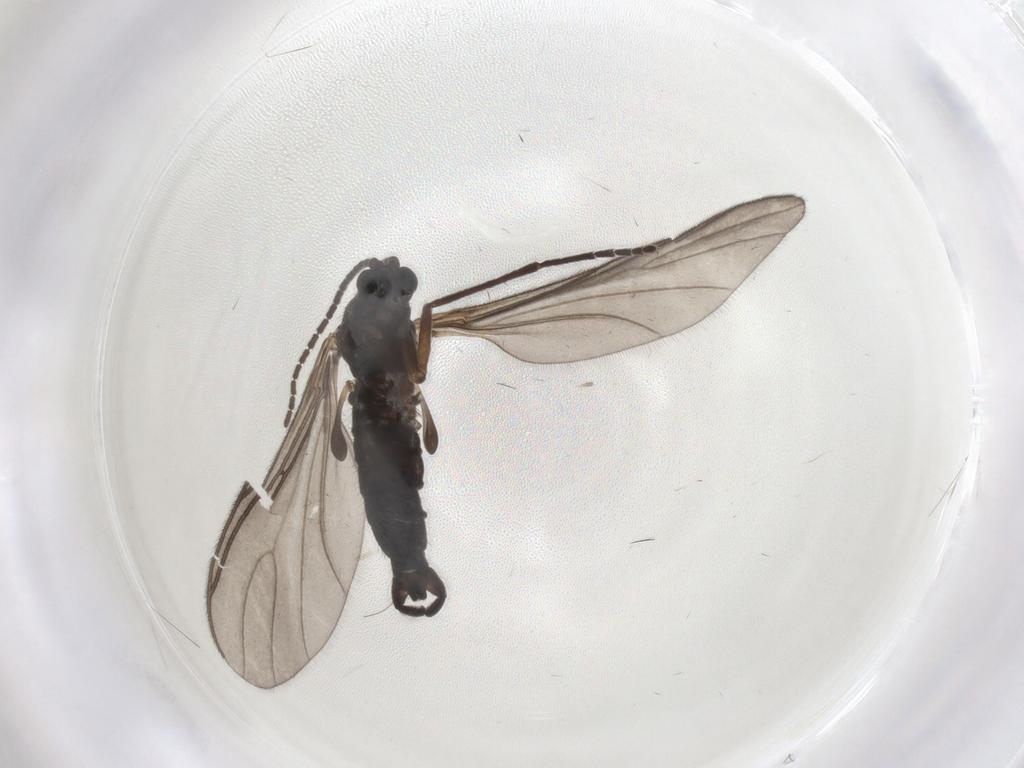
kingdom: Animalia
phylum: Arthropoda
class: Insecta
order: Diptera
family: Sciaridae
